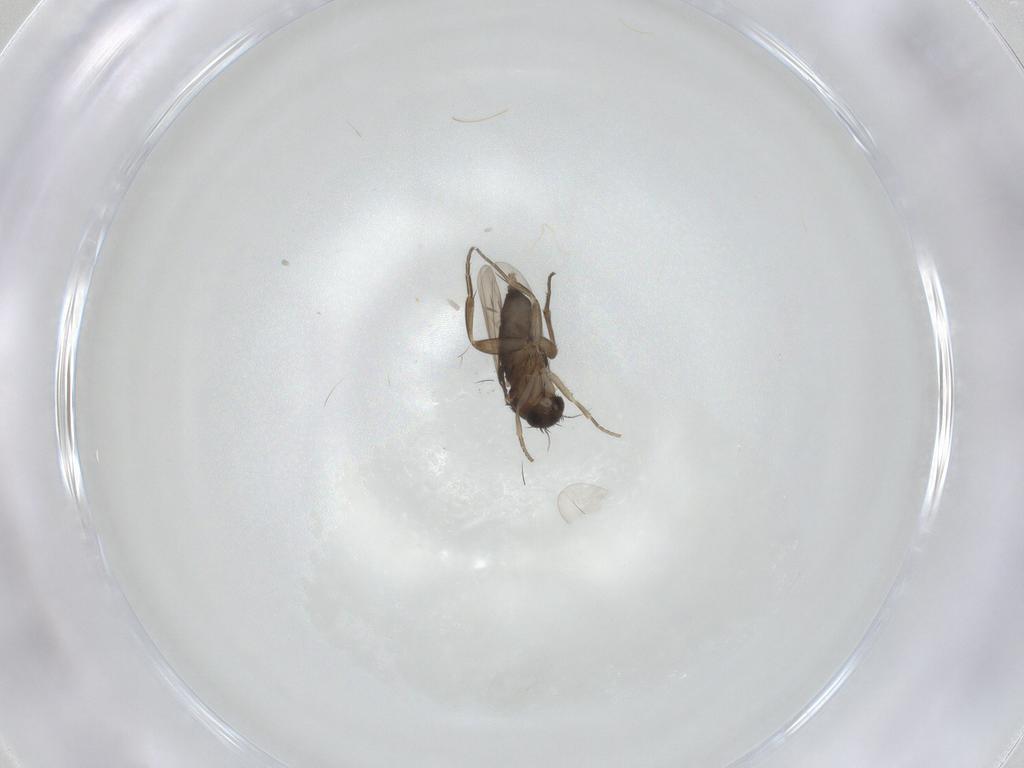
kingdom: Animalia
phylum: Arthropoda
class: Insecta
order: Diptera
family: Phoridae
